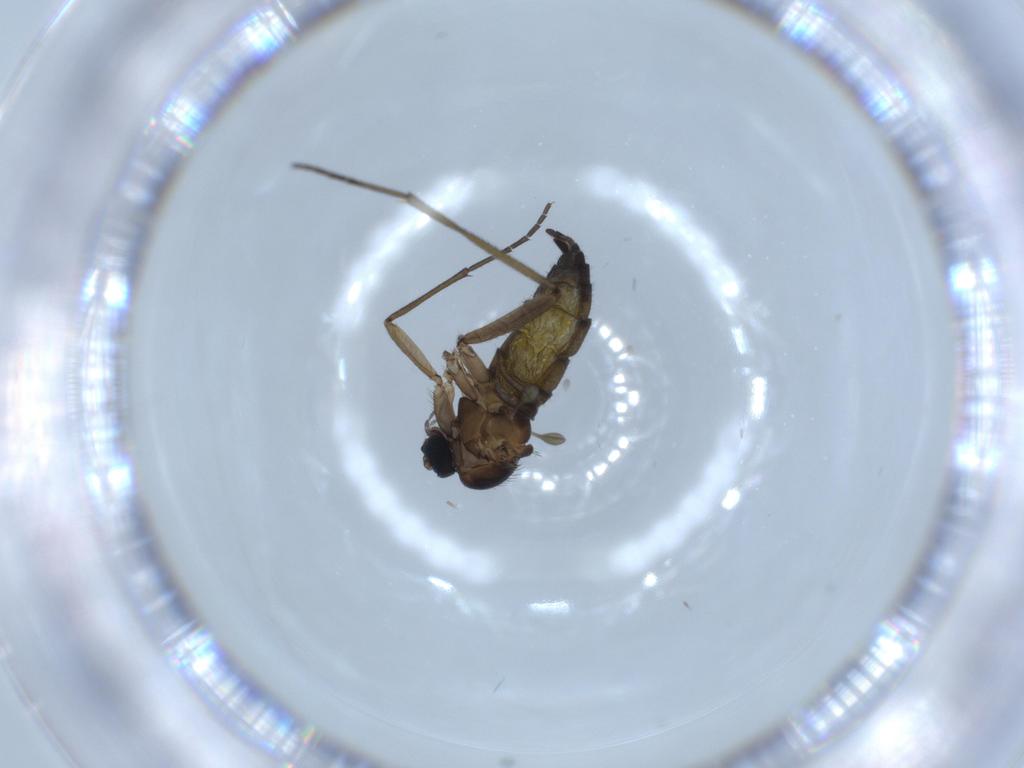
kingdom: Animalia
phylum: Arthropoda
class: Insecta
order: Diptera
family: Sciaridae
